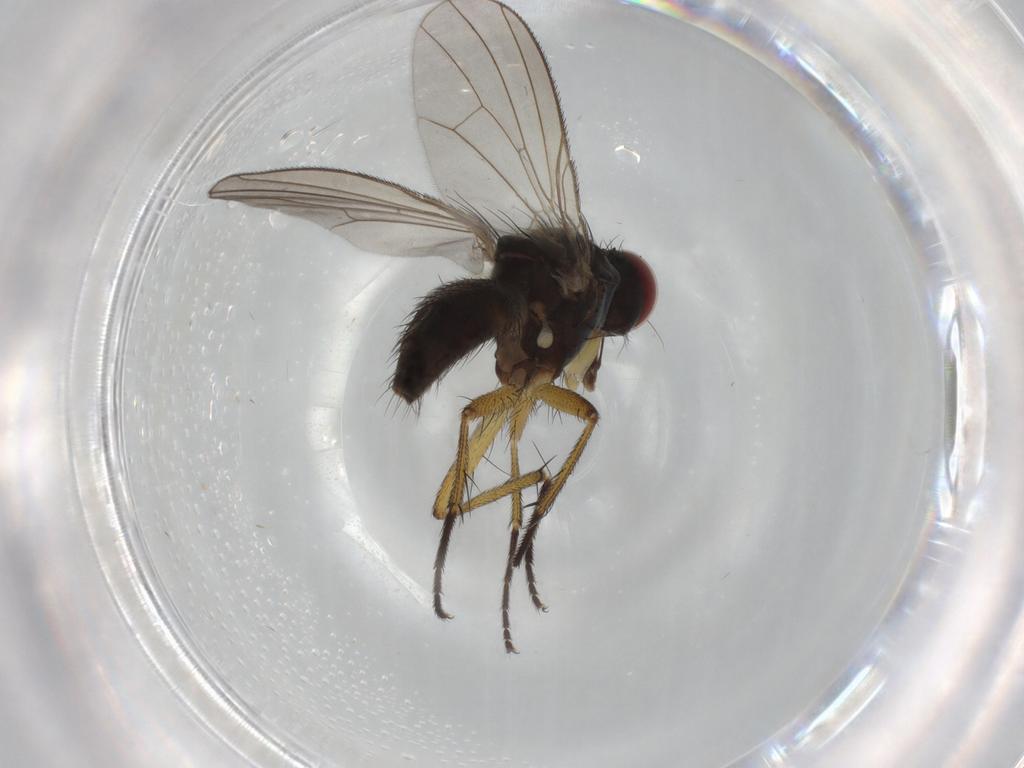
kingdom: Animalia
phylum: Arthropoda
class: Insecta
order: Diptera
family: Muscidae
